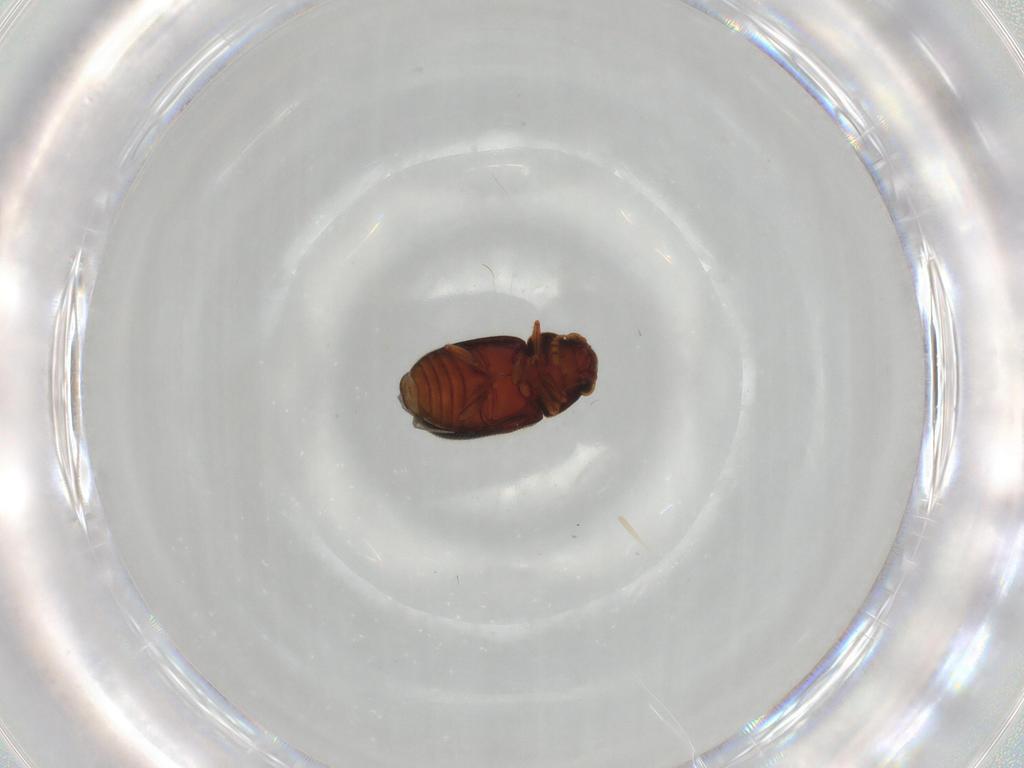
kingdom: Animalia
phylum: Arthropoda
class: Insecta
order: Coleoptera
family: Sphindidae
